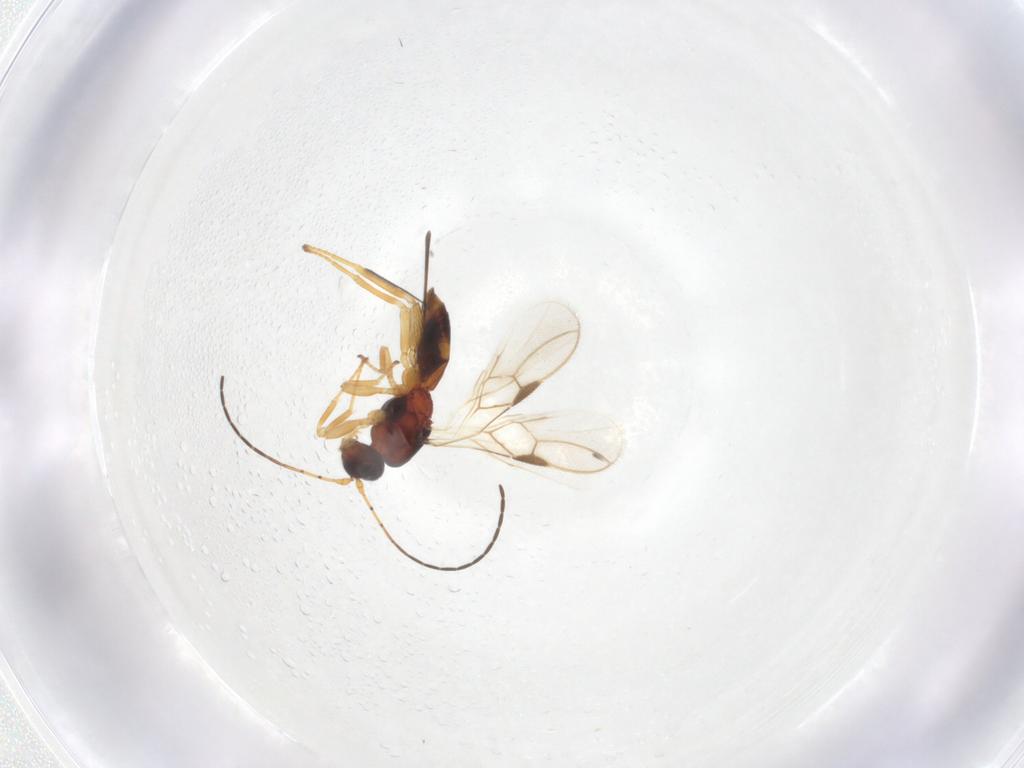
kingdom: Animalia
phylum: Arthropoda
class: Insecta
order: Hymenoptera
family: Braconidae
